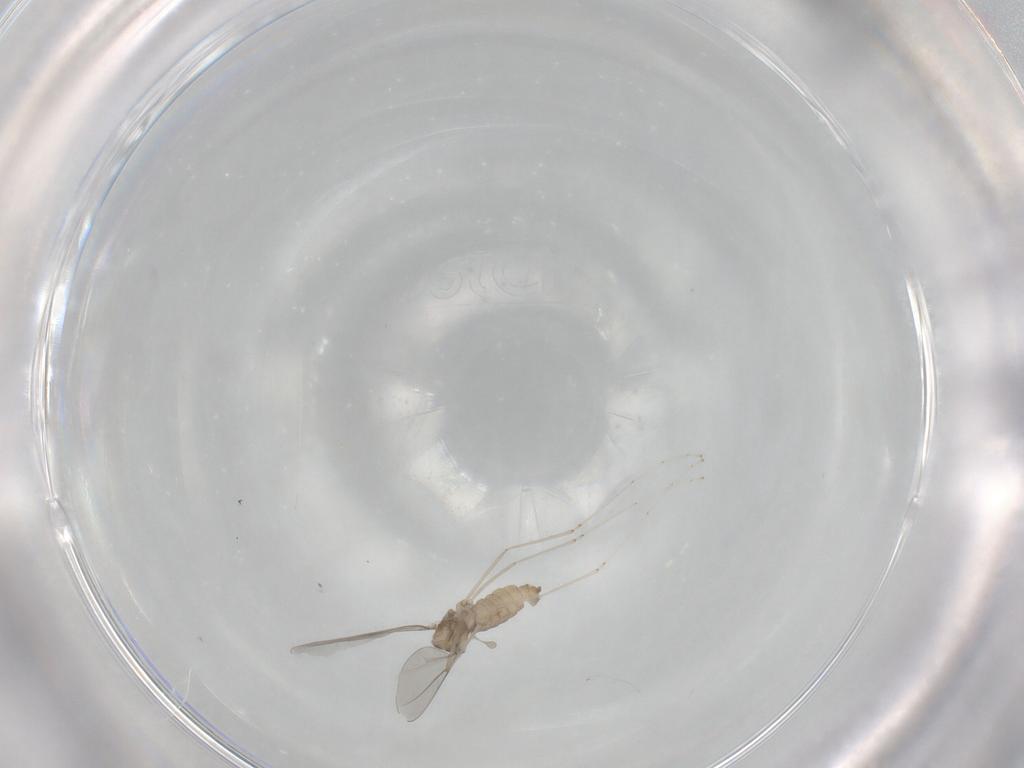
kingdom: Animalia
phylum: Arthropoda
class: Insecta
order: Diptera
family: Cecidomyiidae
